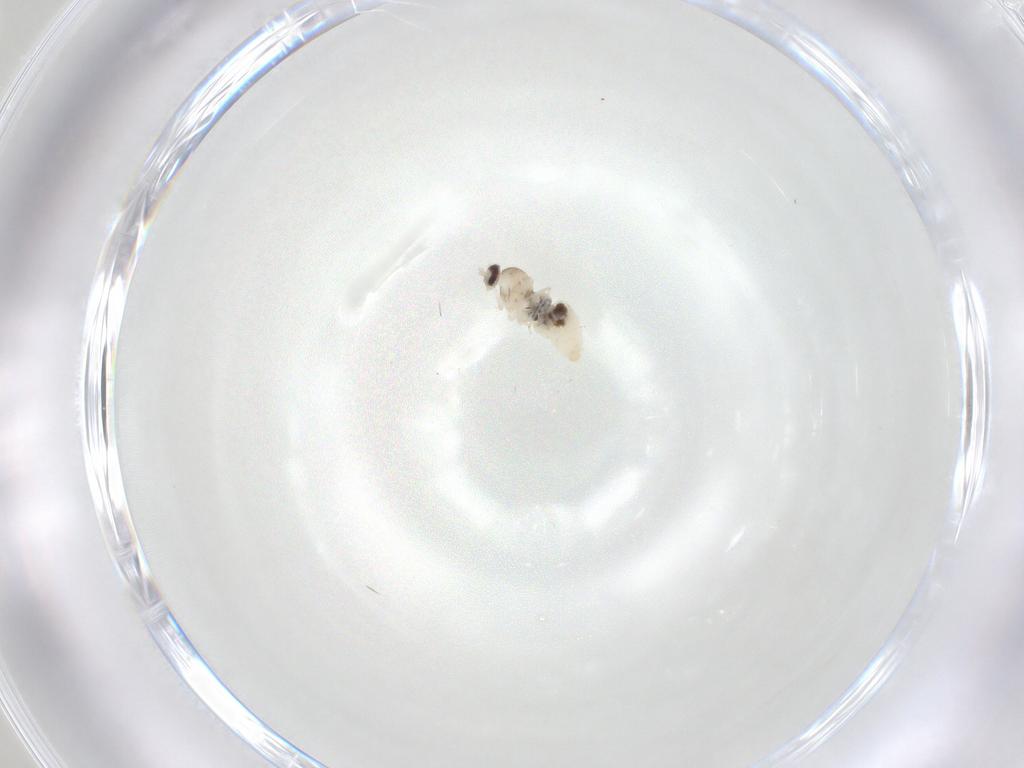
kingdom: Animalia
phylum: Arthropoda
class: Insecta
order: Diptera
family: Cecidomyiidae
